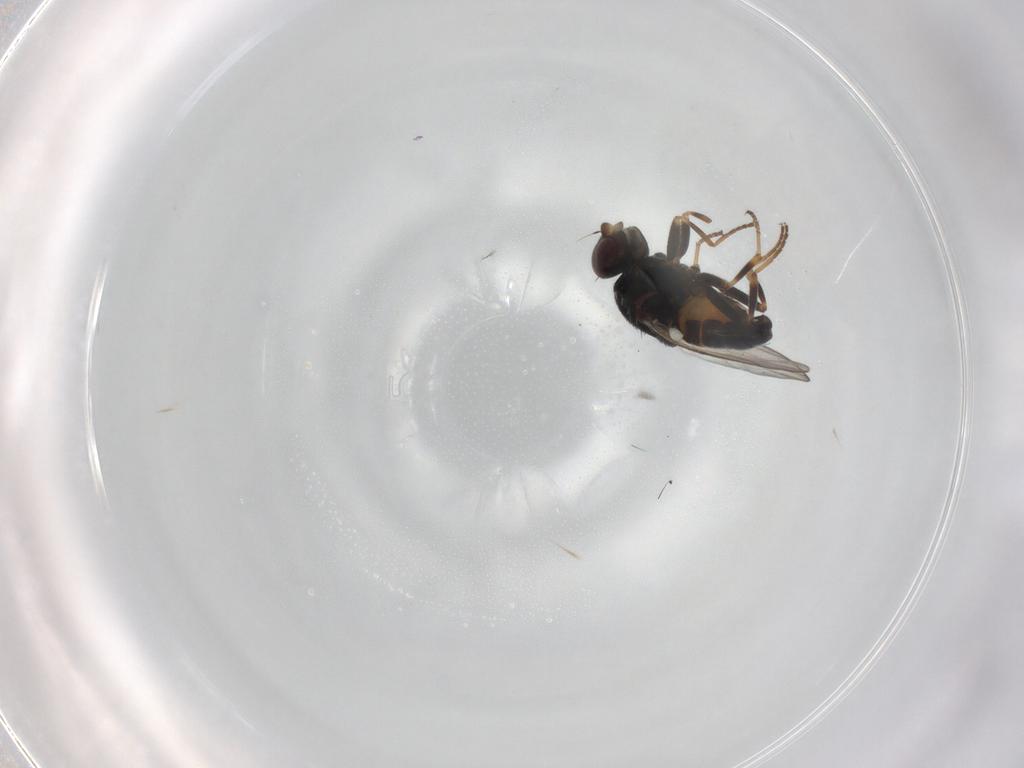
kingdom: Animalia
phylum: Arthropoda
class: Insecta
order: Diptera
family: Chloropidae
